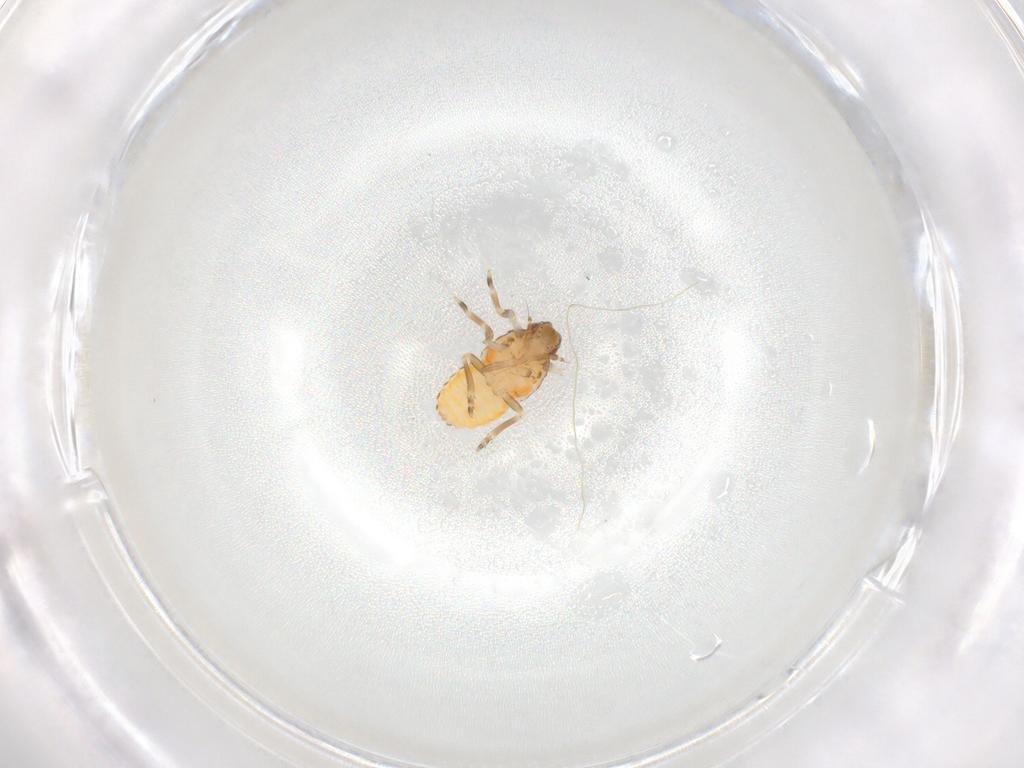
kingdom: Animalia
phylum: Arthropoda
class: Insecta
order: Hemiptera
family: Flatidae
